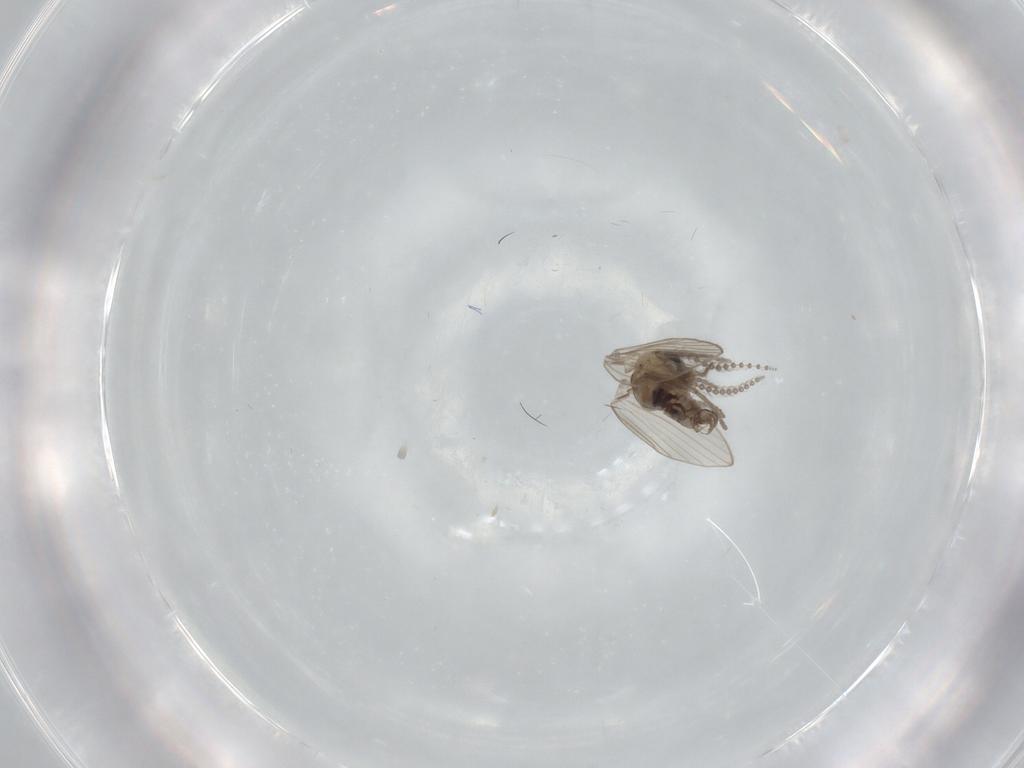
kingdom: Animalia
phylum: Arthropoda
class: Insecta
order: Diptera
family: Psychodidae
